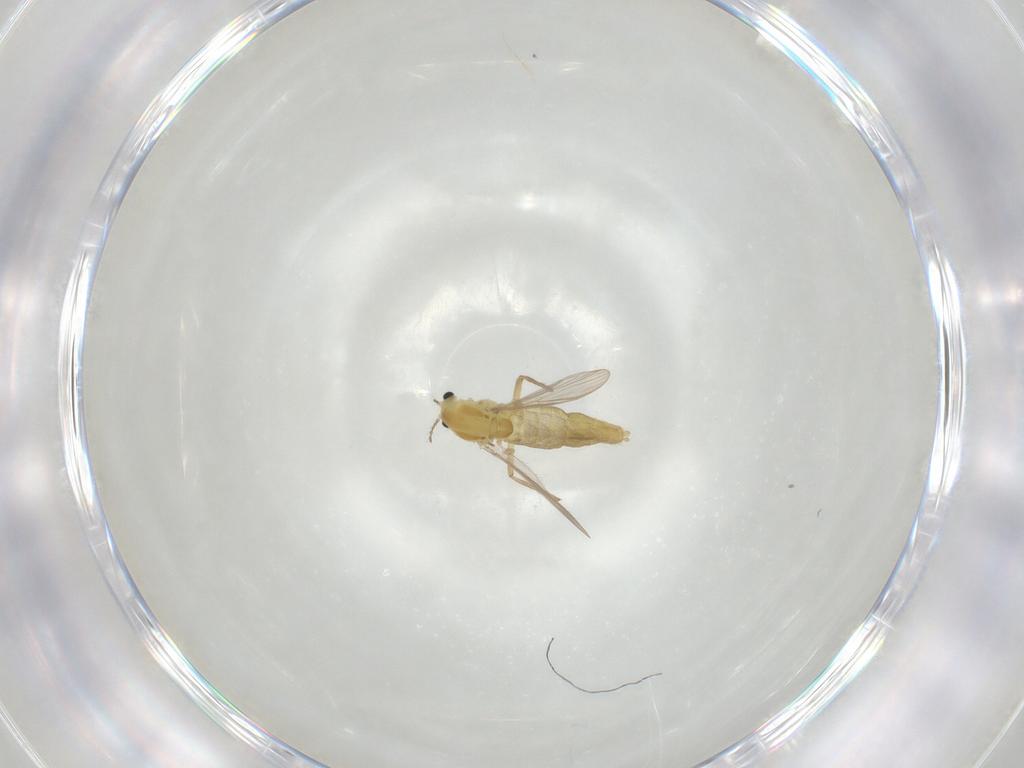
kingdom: Animalia
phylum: Arthropoda
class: Insecta
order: Diptera
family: Chironomidae
